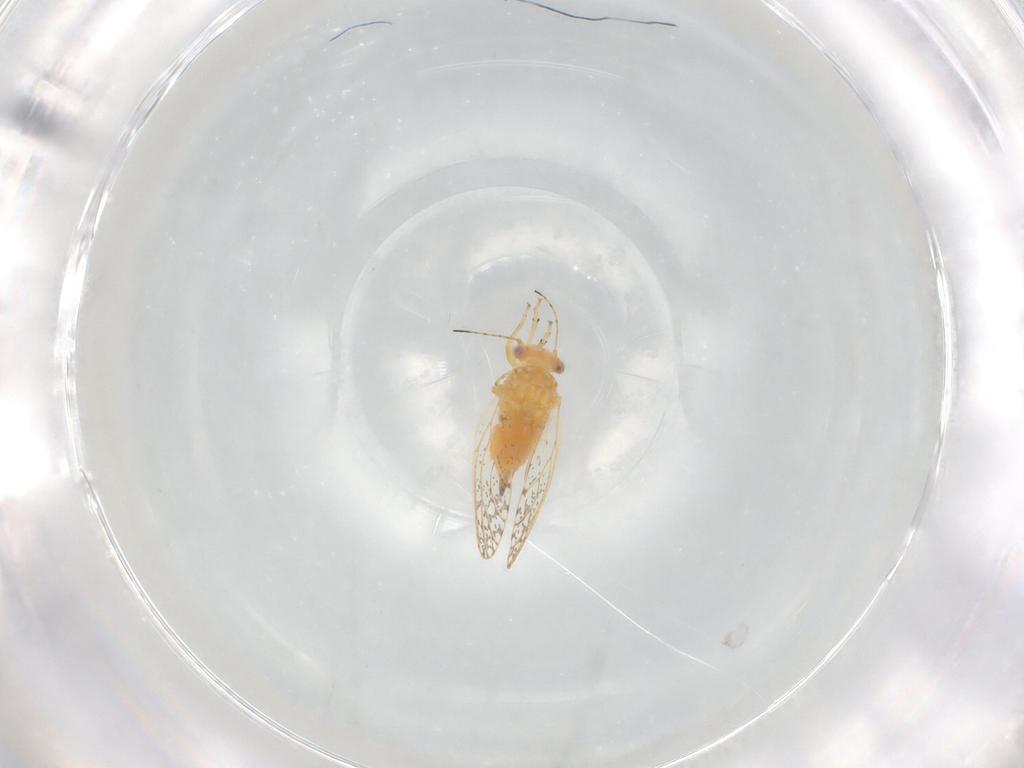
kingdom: Animalia
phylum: Arthropoda
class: Insecta
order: Hemiptera
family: Psyllidae
